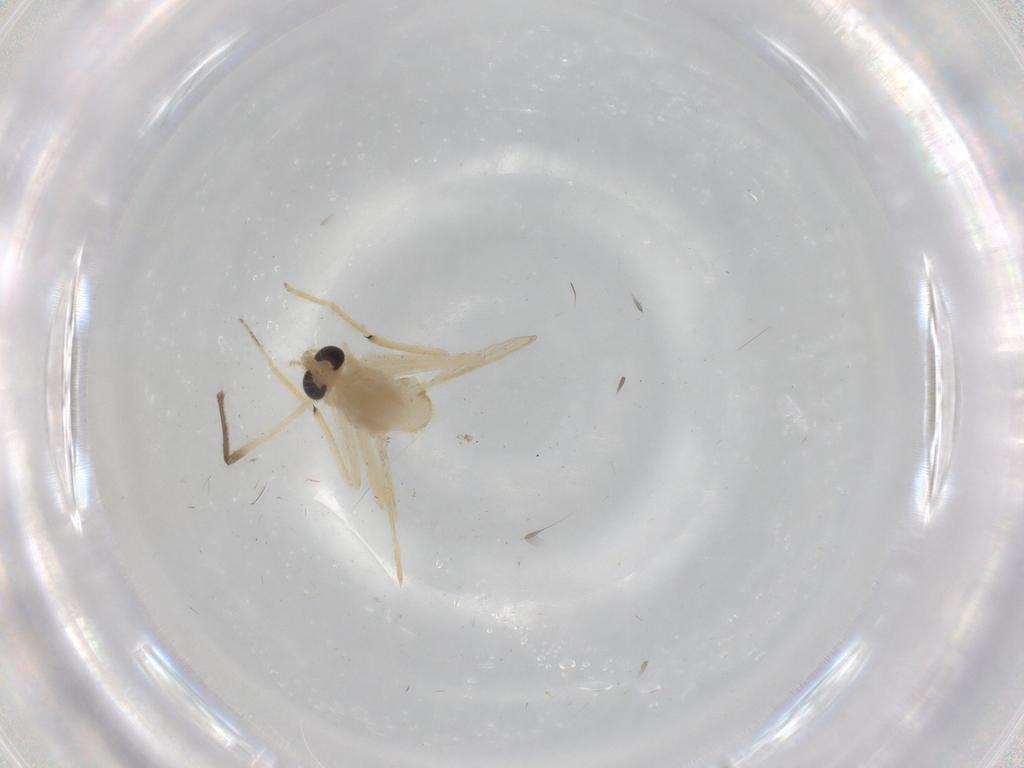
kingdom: Animalia
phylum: Arthropoda
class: Insecta
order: Diptera
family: Chironomidae
